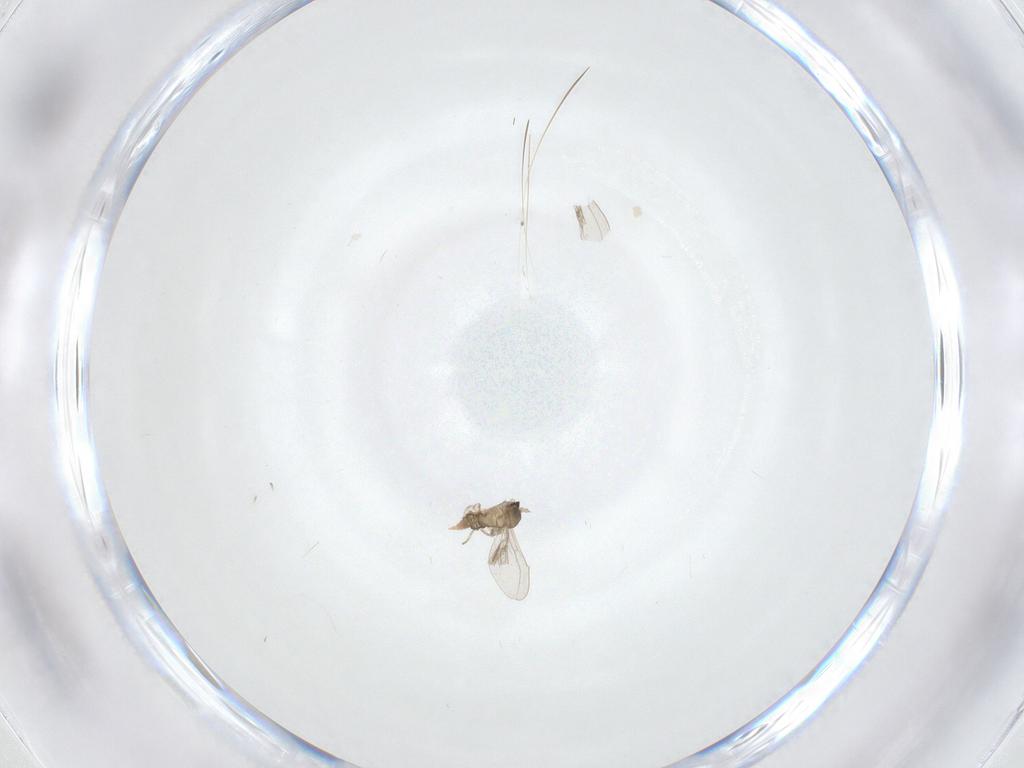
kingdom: Animalia
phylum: Arthropoda
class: Insecta
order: Diptera
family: Cecidomyiidae
